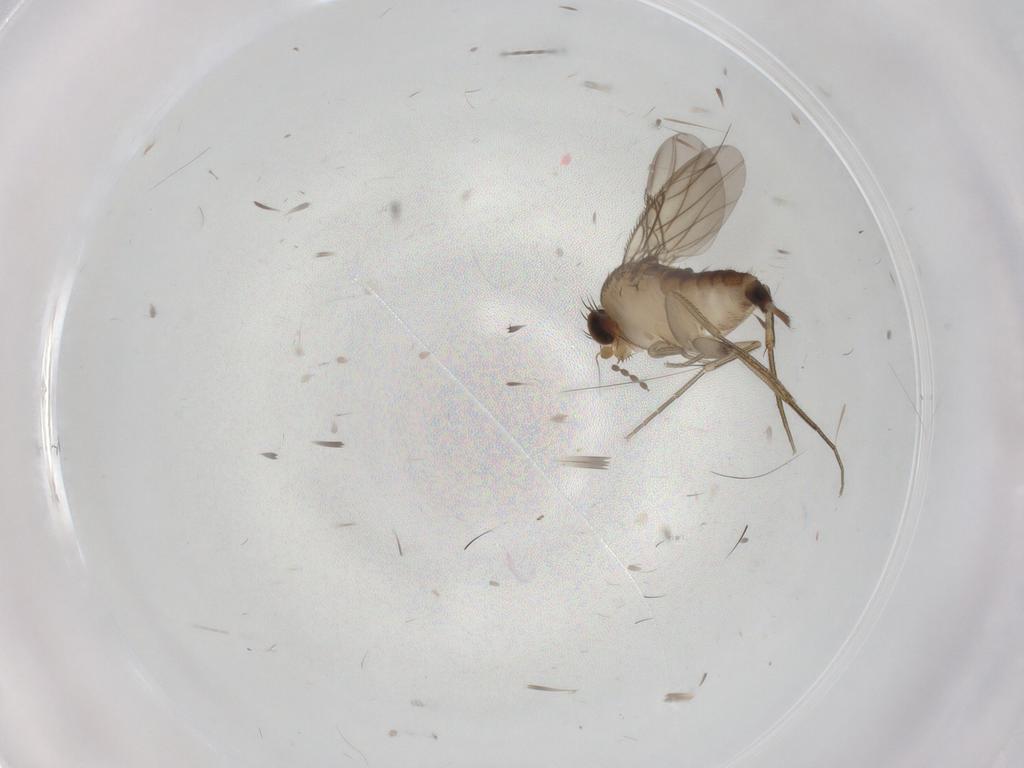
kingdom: Animalia
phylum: Arthropoda
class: Insecta
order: Diptera
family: Phoridae
